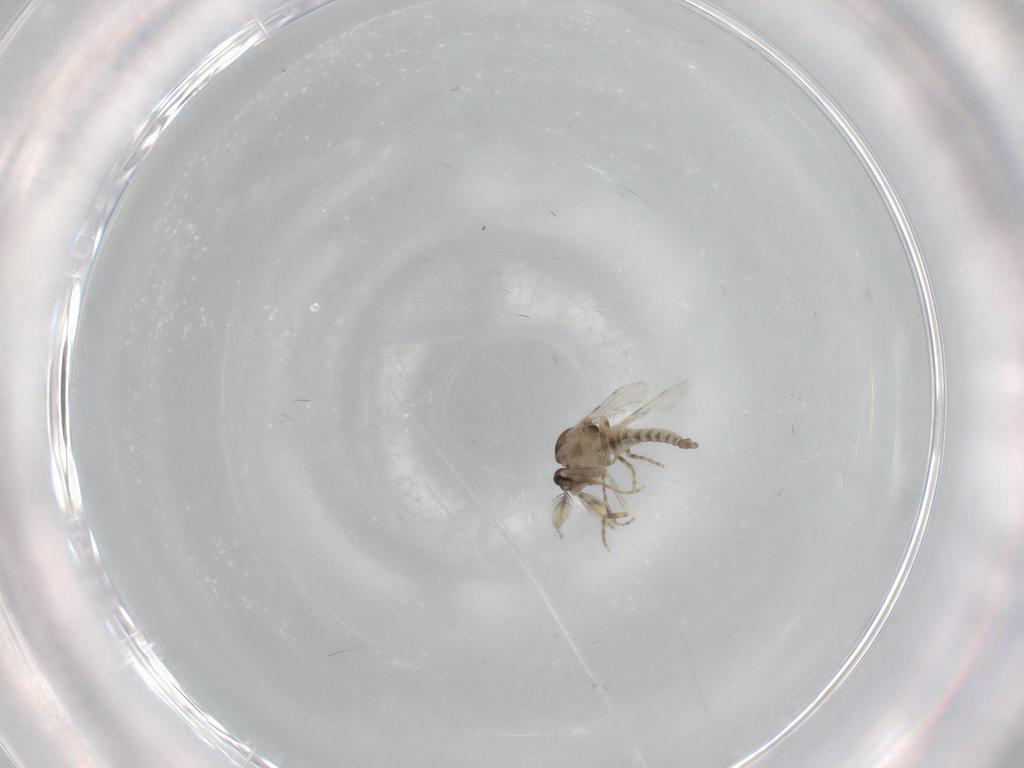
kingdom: Animalia
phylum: Arthropoda
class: Insecta
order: Diptera
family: Ceratopogonidae
